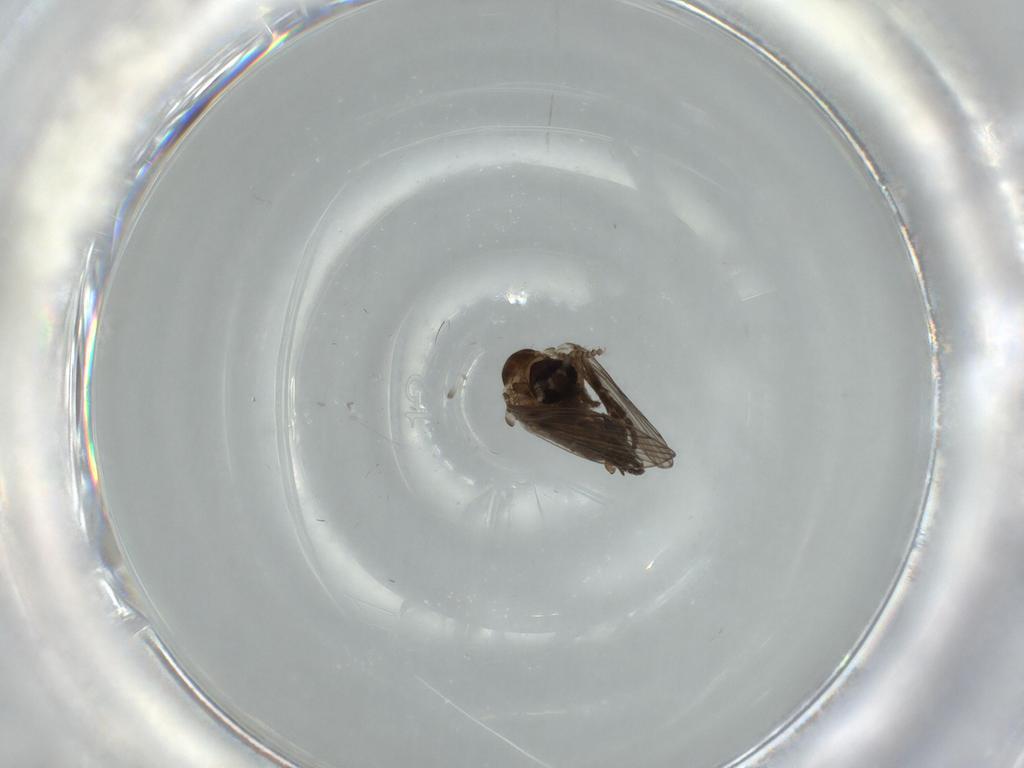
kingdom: Animalia
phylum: Arthropoda
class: Insecta
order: Diptera
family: Psychodidae
